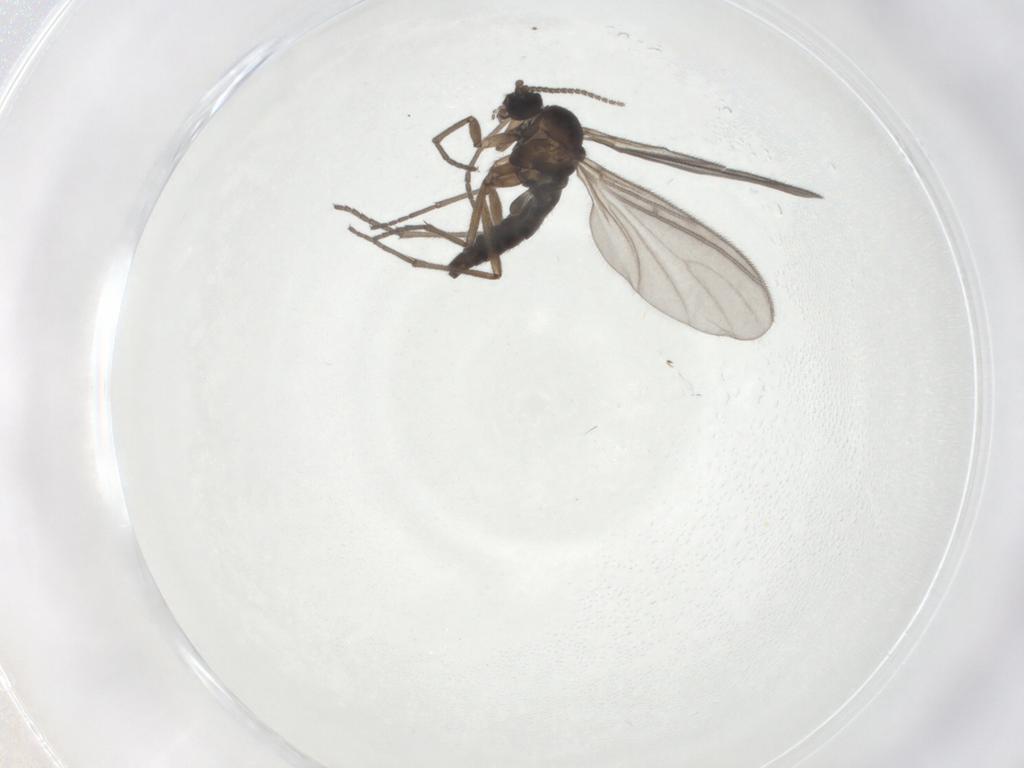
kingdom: Animalia
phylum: Arthropoda
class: Insecta
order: Diptera
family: Sciaridae
